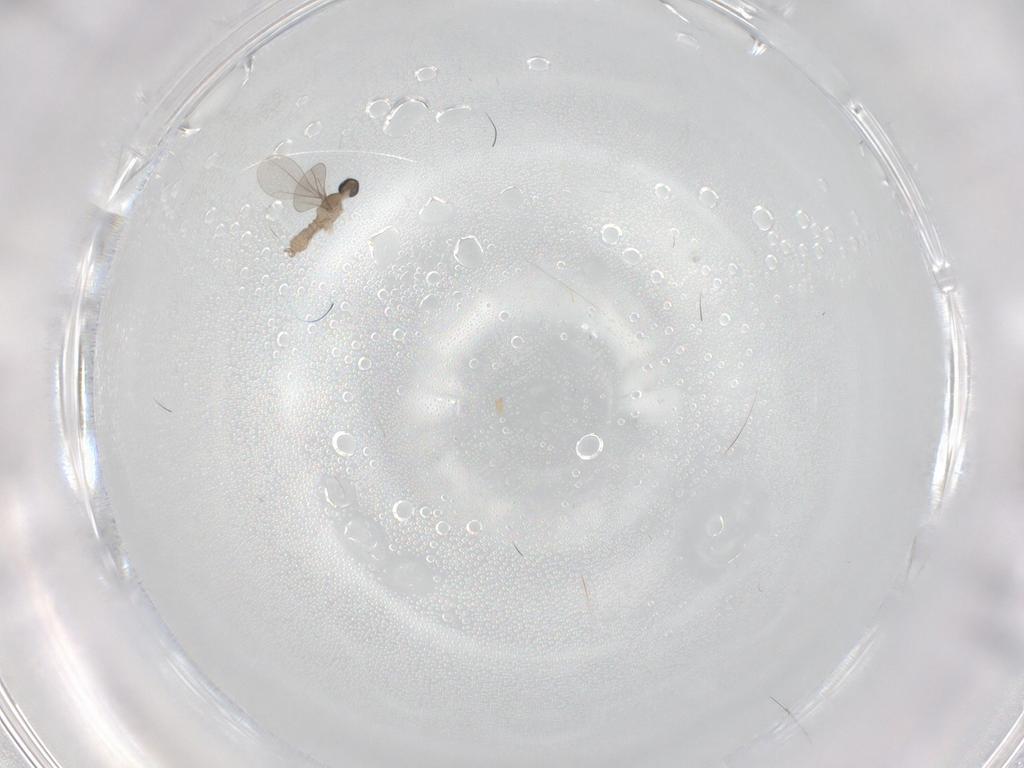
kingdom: Animalia
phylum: Arthropoda
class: Insecta
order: Diptera
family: Cecidomyiidae
